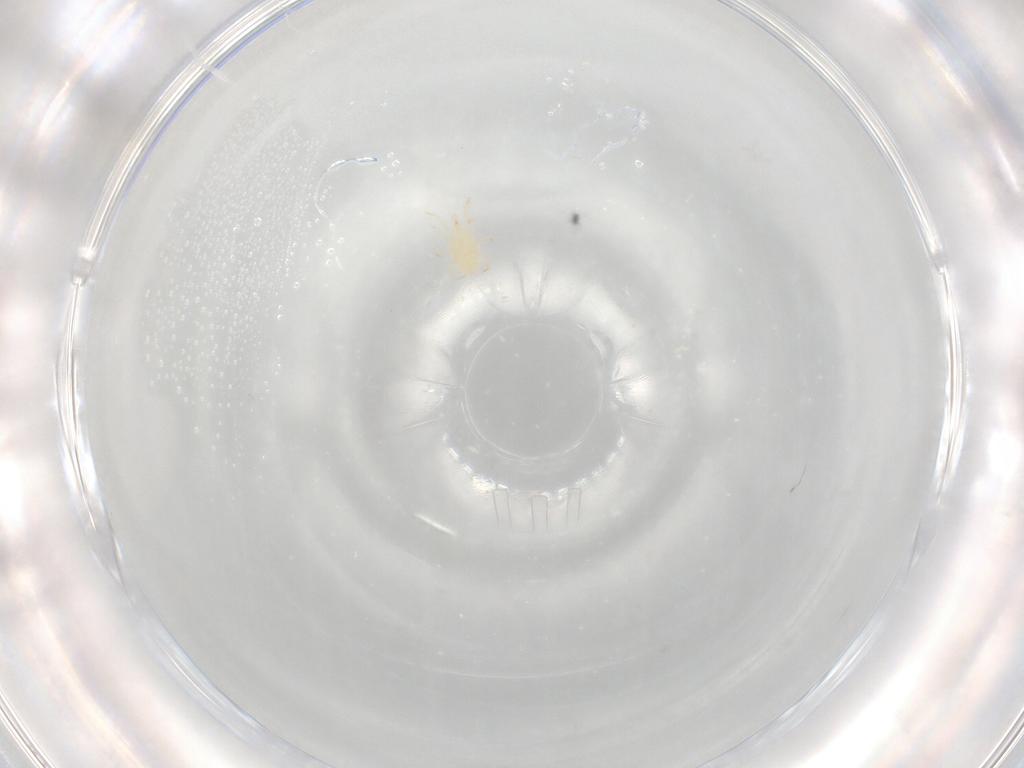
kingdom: Animalia
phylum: Arthropoda
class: Arachnida
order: Mesostigmata
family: Phytoseiidae
